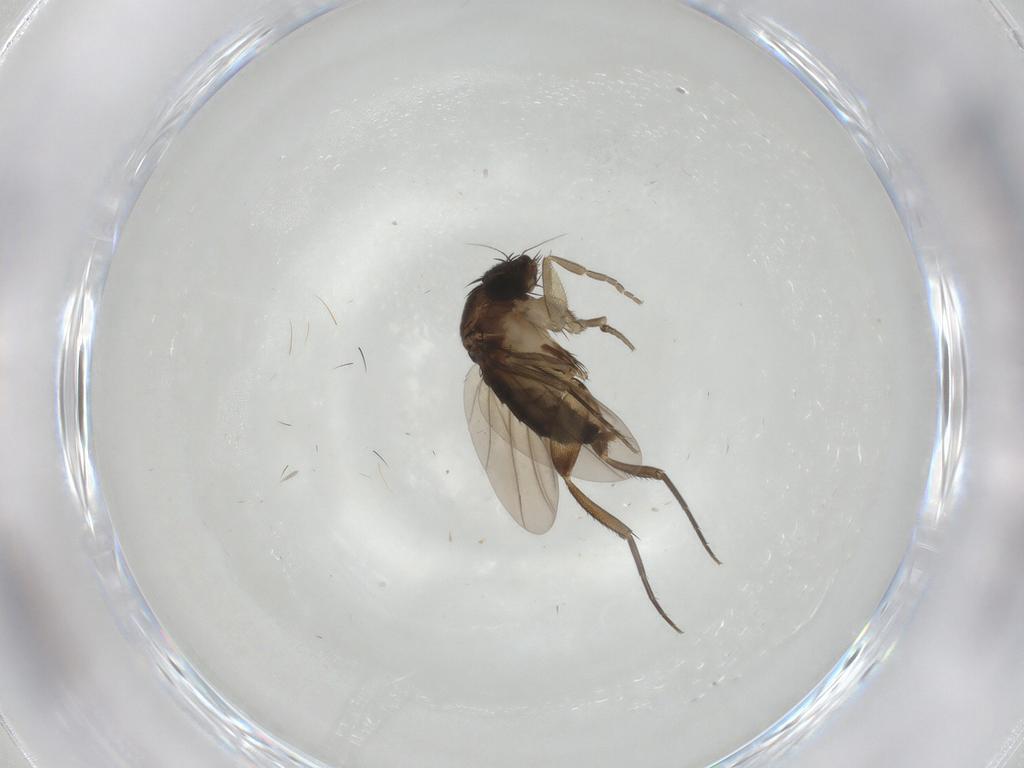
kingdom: Animalia
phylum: Arthropoda
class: Insecta
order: Diptera
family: Phoridae
